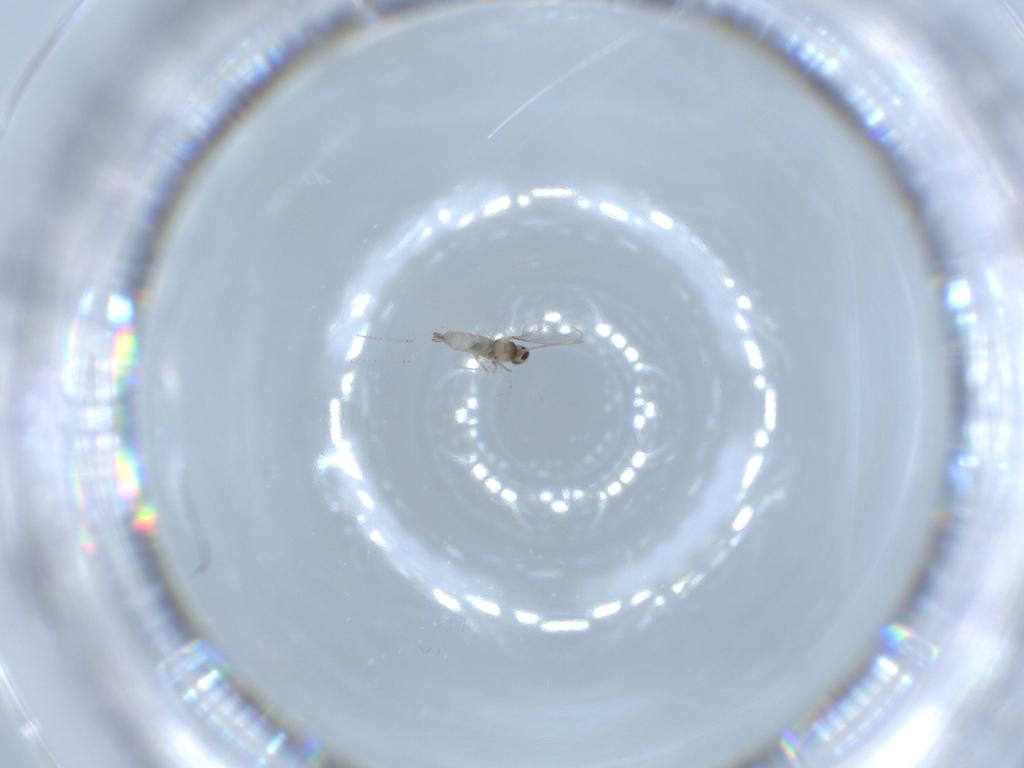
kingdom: Animalia
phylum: Arthropoda
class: Insecta
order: Diptera
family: Cecidomyiidae
